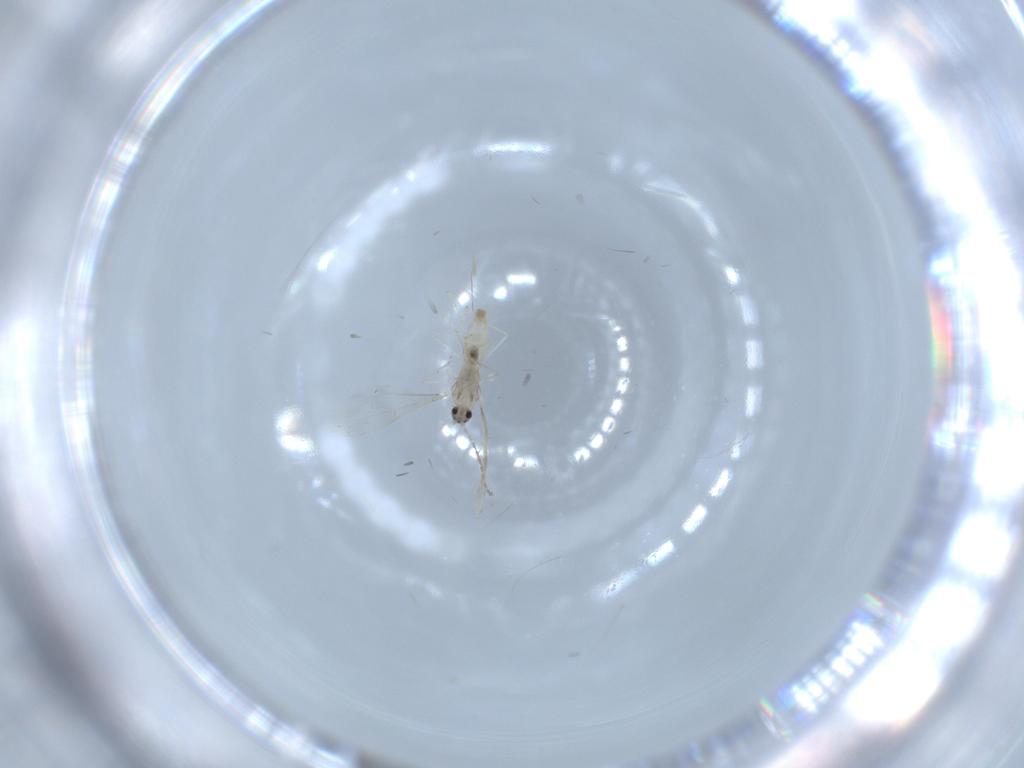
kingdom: Animalia
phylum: Arthropoda
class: Insecta
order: Diptera
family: Cecidomyiidae
